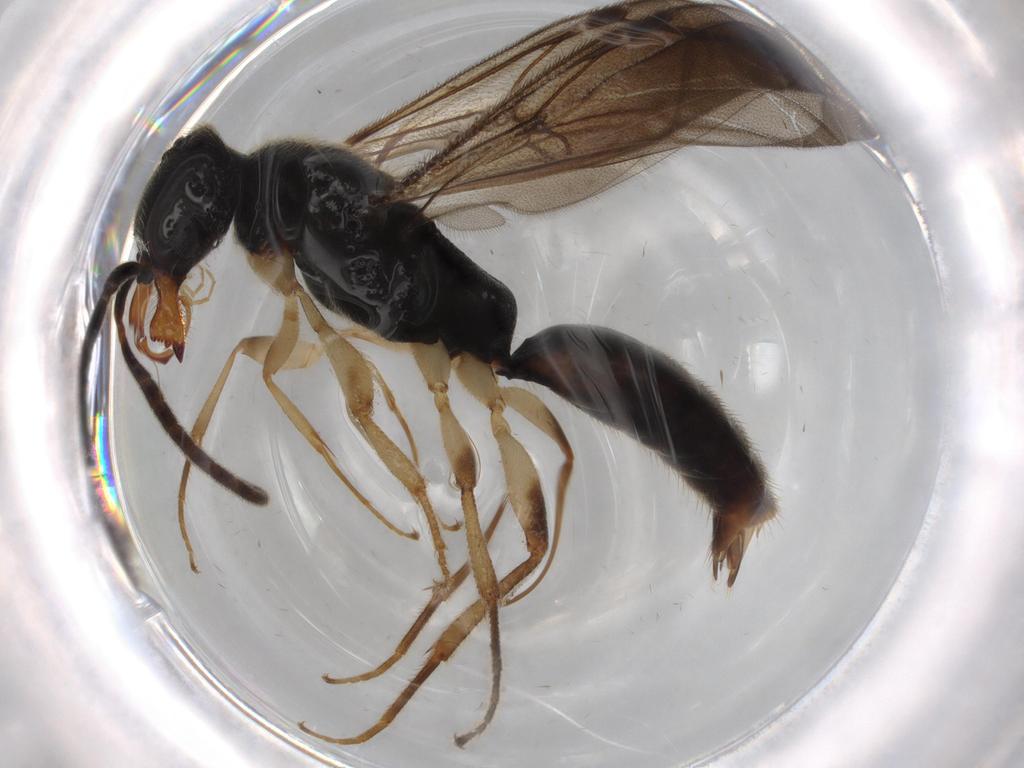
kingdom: Animalia
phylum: Arthropoda
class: Insecta
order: Hymenoptera
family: Bethylidae
